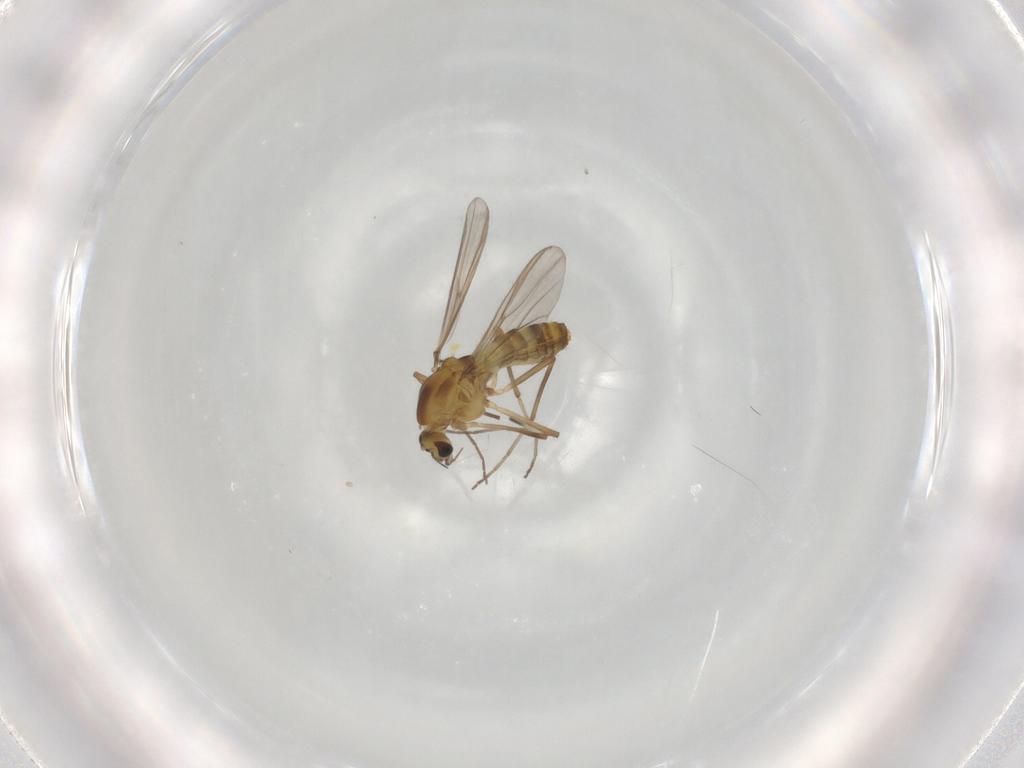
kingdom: Animalia
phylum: Arthropoda
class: Insecta
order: Diptera
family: Chironomidae
